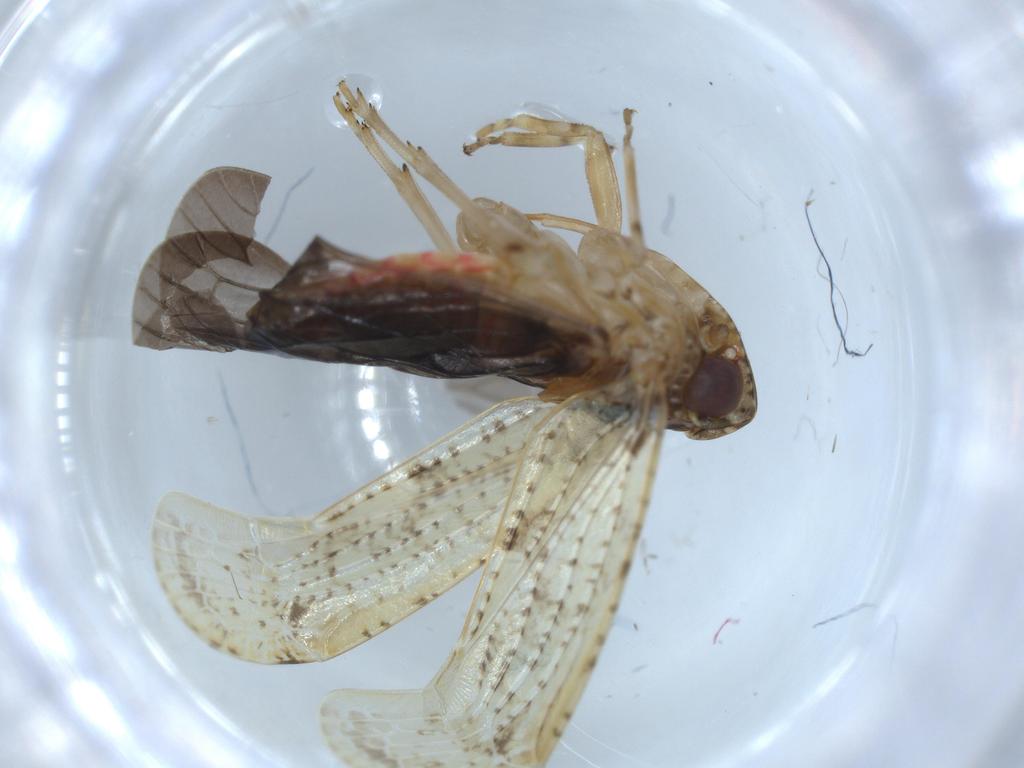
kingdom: Animalia
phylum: Arthropoda
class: Insecta
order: Hemiptera
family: Achilidae
